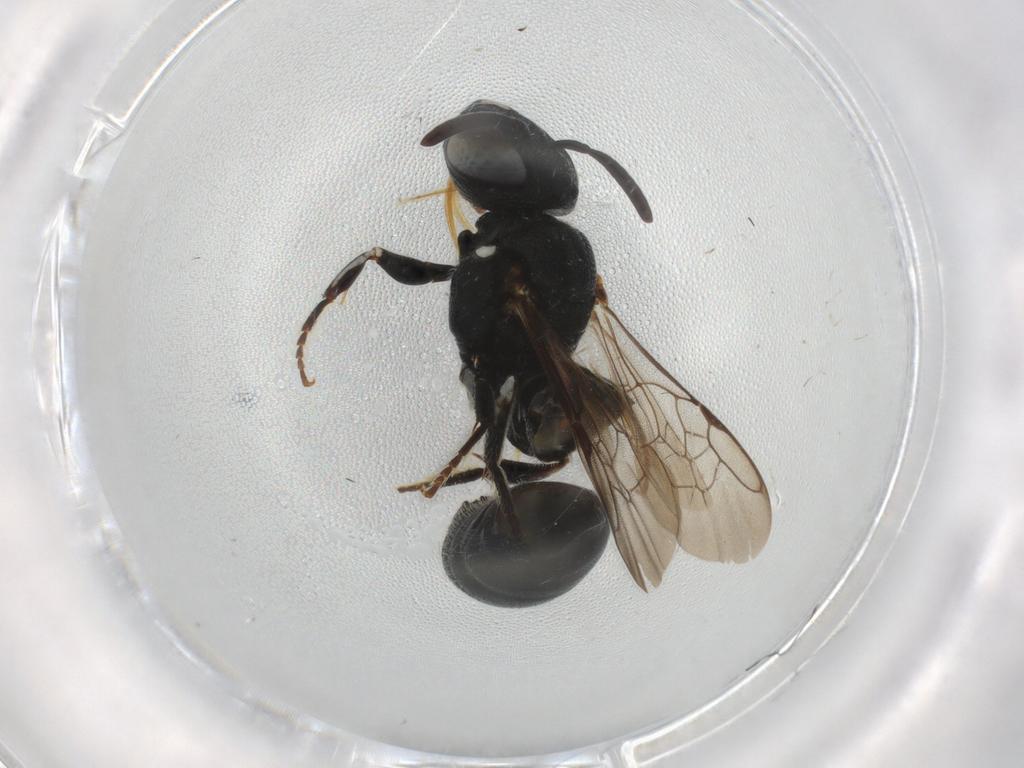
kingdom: Animalia
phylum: Arthropoda
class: Insecta
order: Hymenoptera
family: Apidae
